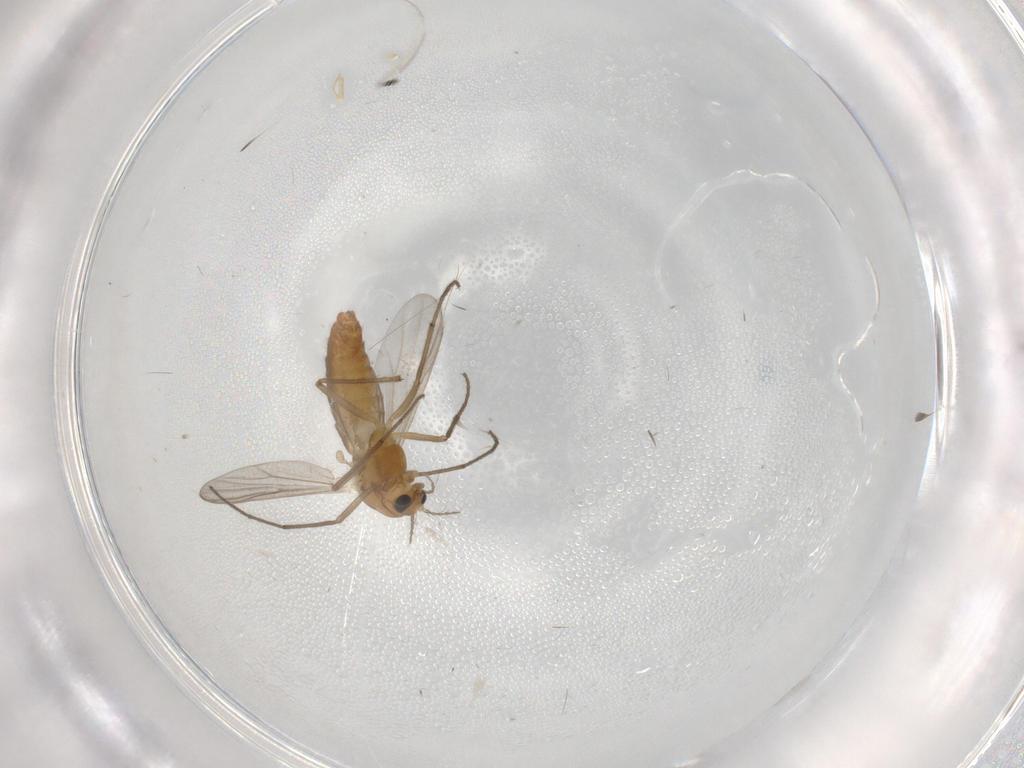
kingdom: Animalia
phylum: Arthropoda
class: Insecta
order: Diptera
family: Chironomidae
